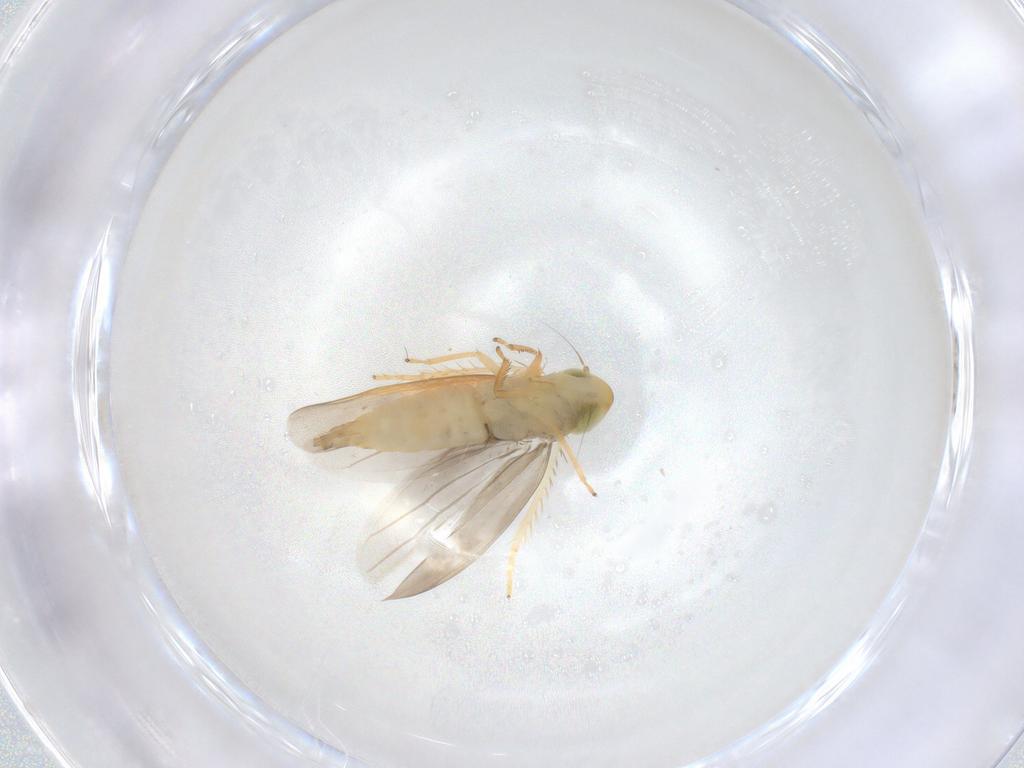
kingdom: Animalia
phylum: Arthropoda
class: Insecta
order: Hemiptera
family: Cicadellidae
